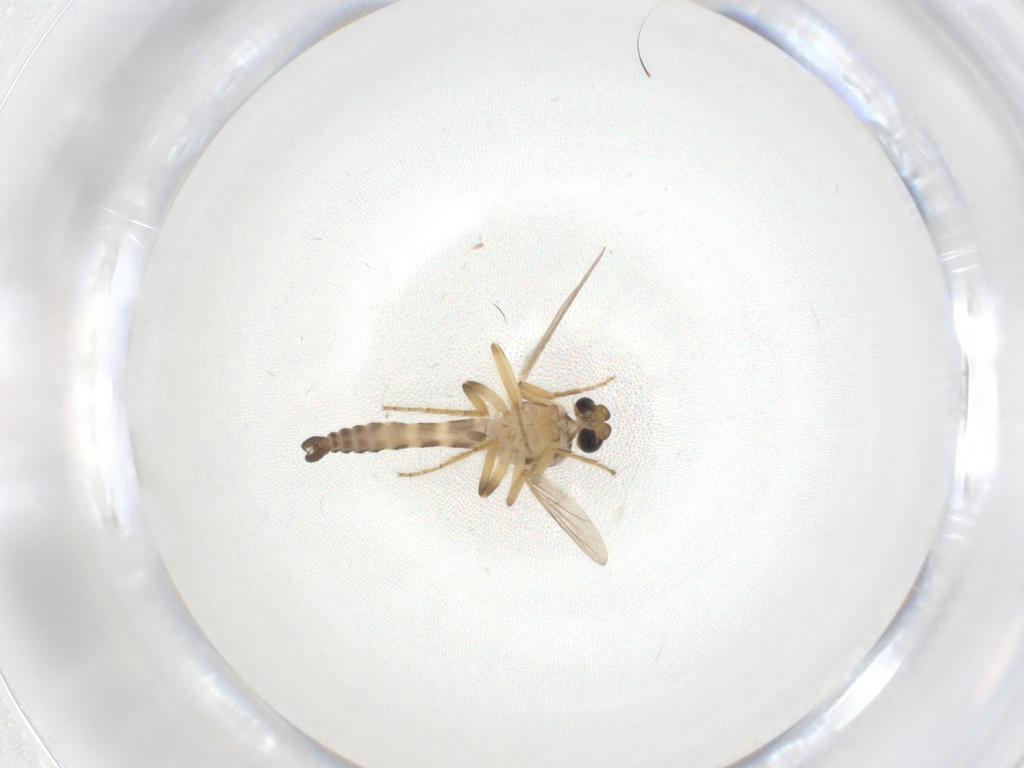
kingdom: Animalia
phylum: Arthropoda
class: Insecta
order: Diptera
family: Ceratopogonidae
